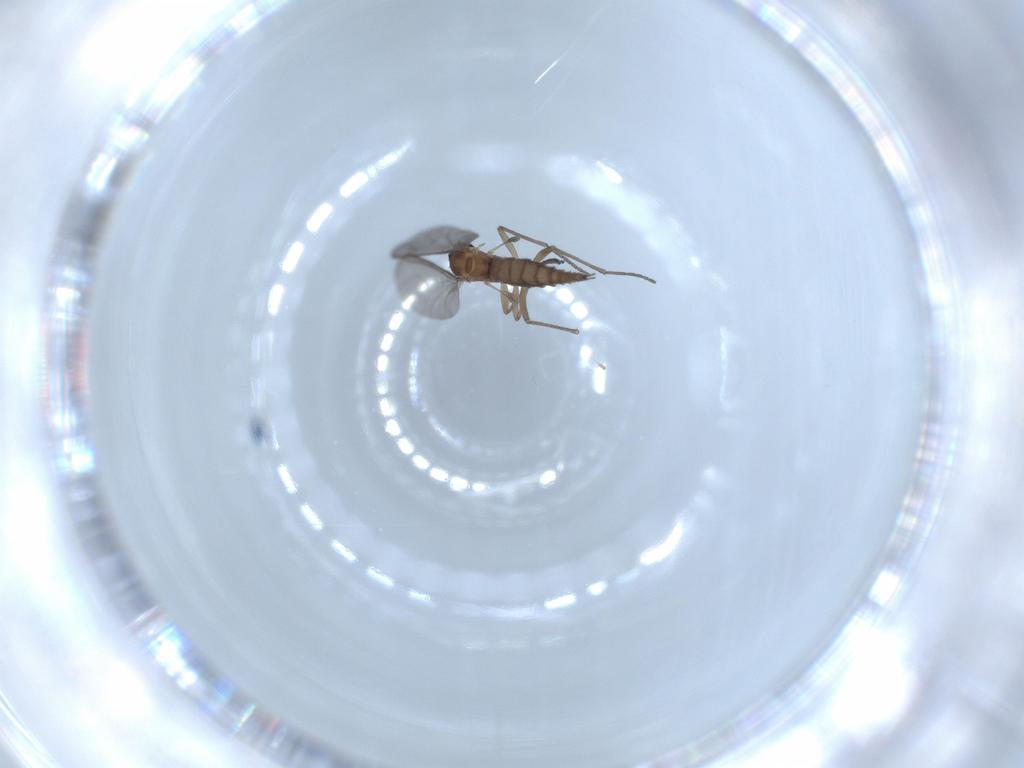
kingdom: Animalia
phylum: Arthropoda
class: Insecta
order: Diptera
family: Sciaridae
